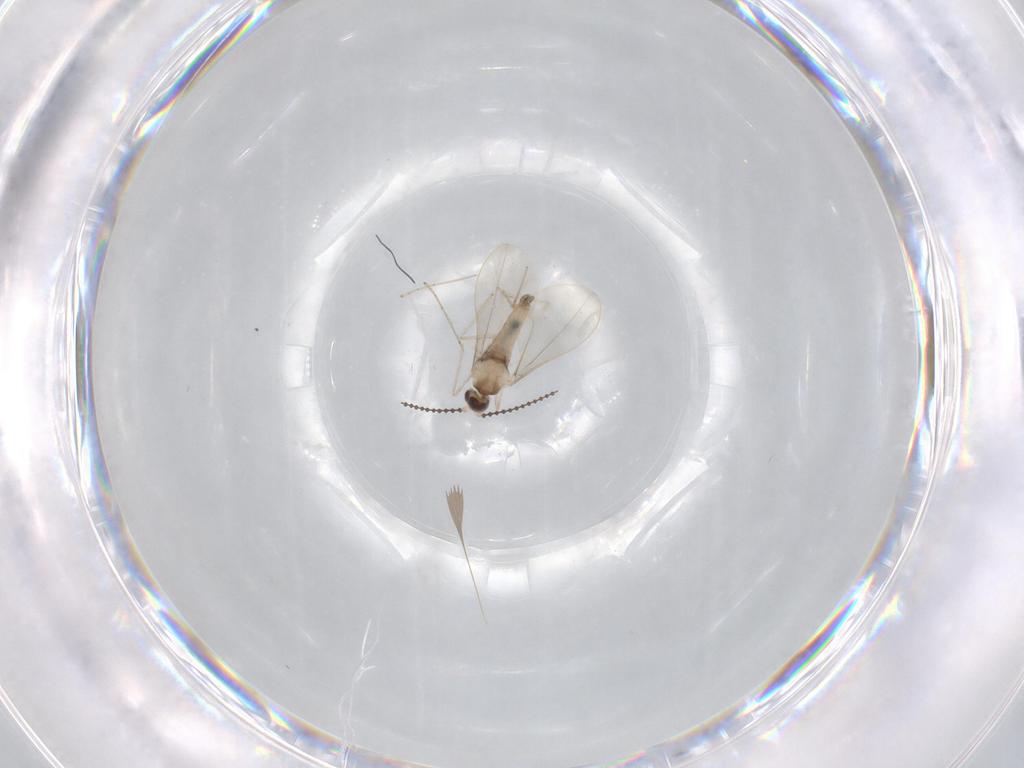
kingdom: Animalia
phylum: Arthropoda
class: Insecta
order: Diptera
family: Cecidomyiidae
